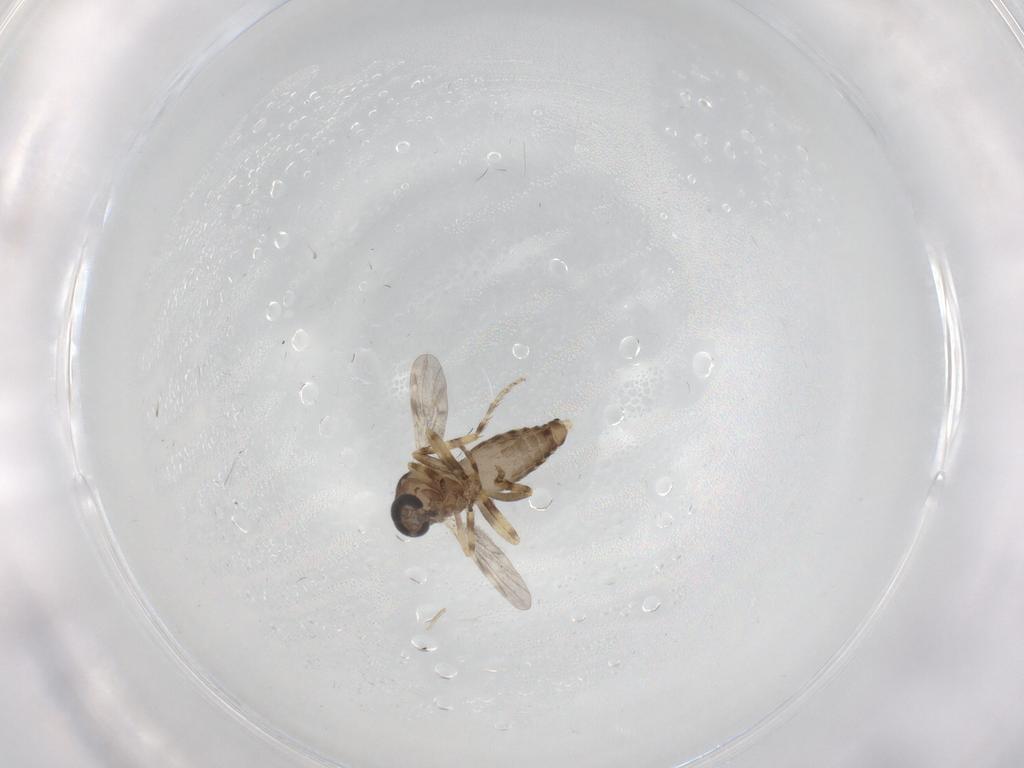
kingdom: Animalia
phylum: Arthropoda
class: Insecta
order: Diptera
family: Ceratopogonidae
